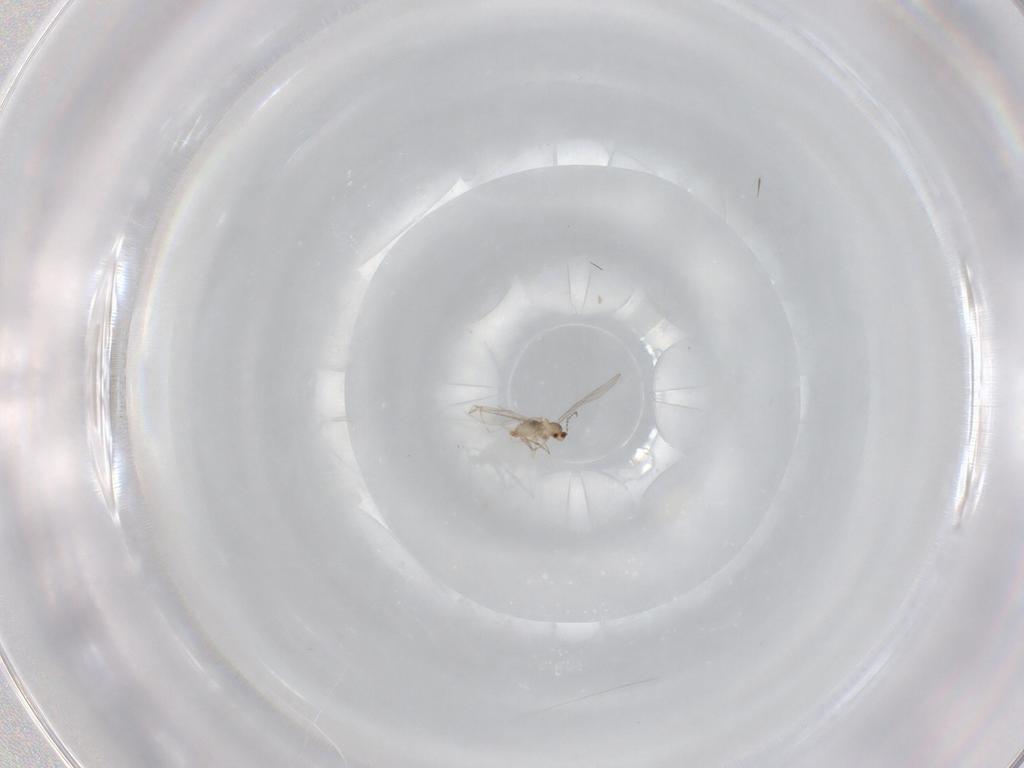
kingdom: Animalia
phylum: Arthropoda
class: Insecta
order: Diptera
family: Cecidomyiidae
